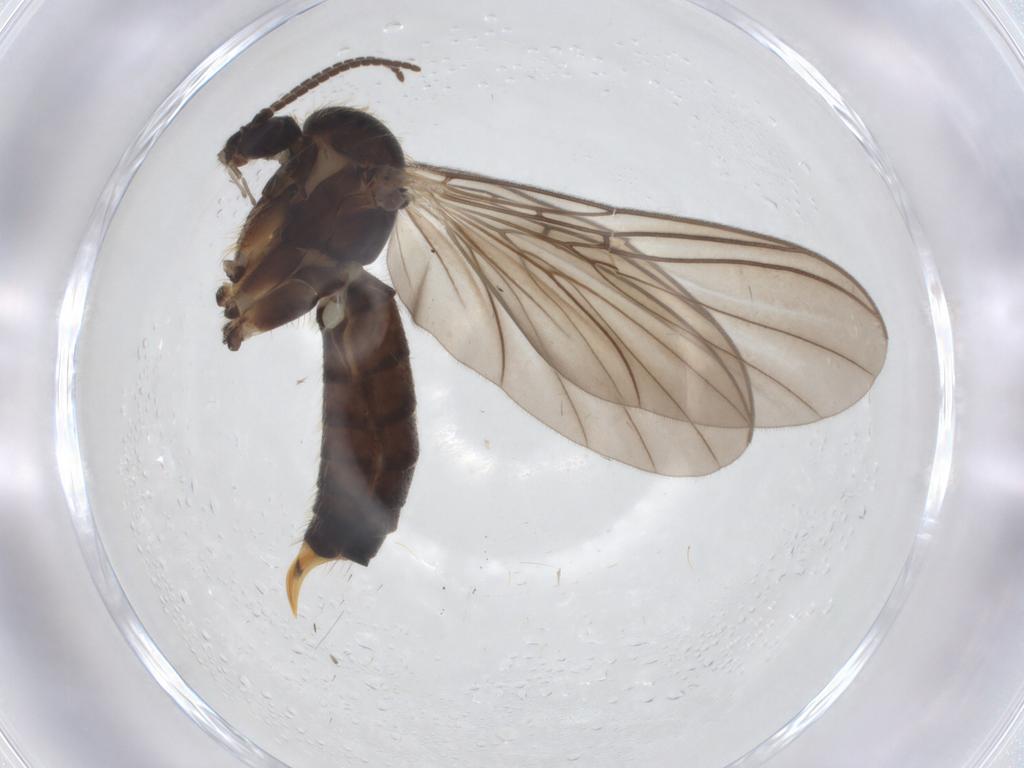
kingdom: Animalia
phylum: Arthropoda
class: Insecta
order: Diptera
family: Mycetophilidae
